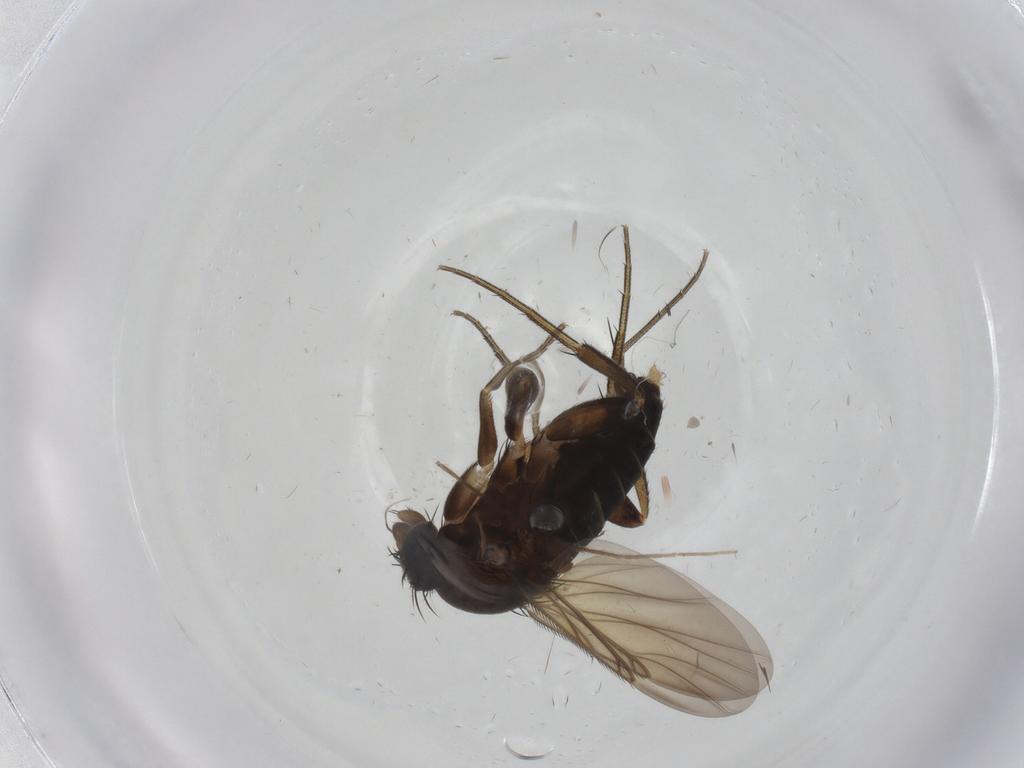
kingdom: Animalia
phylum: Arthropoda
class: Insecta
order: Diptera
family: Phoridae
